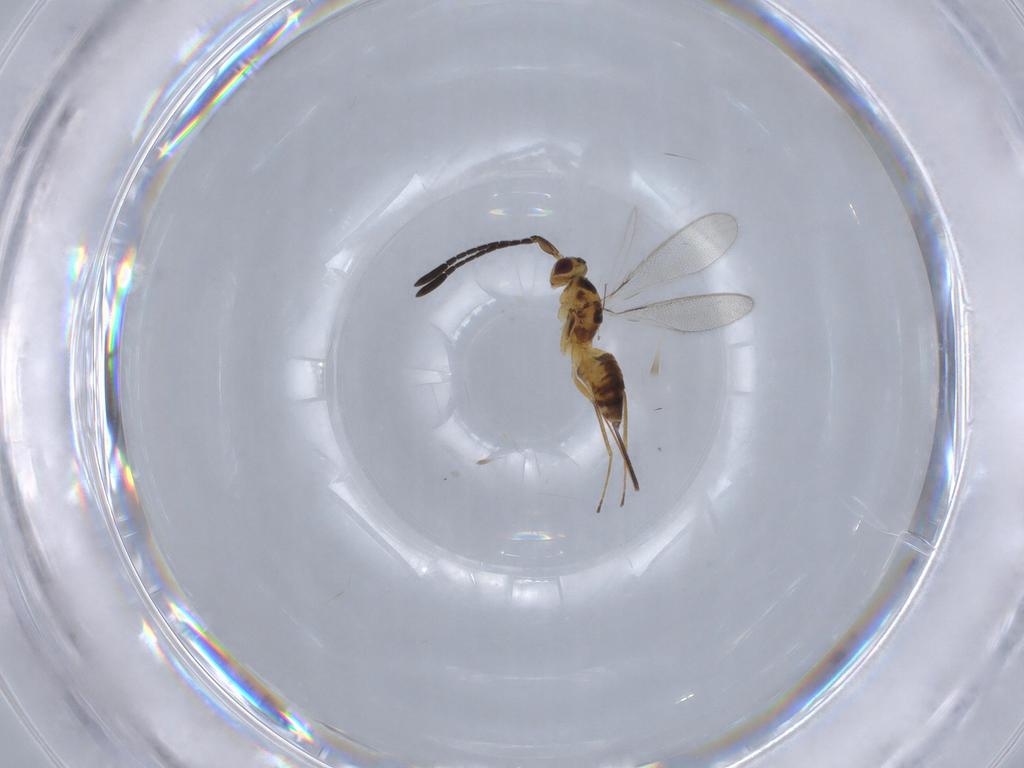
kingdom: Animalia
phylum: Arthropoda
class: Insecta
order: Hymenoptera
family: Mymaridae
